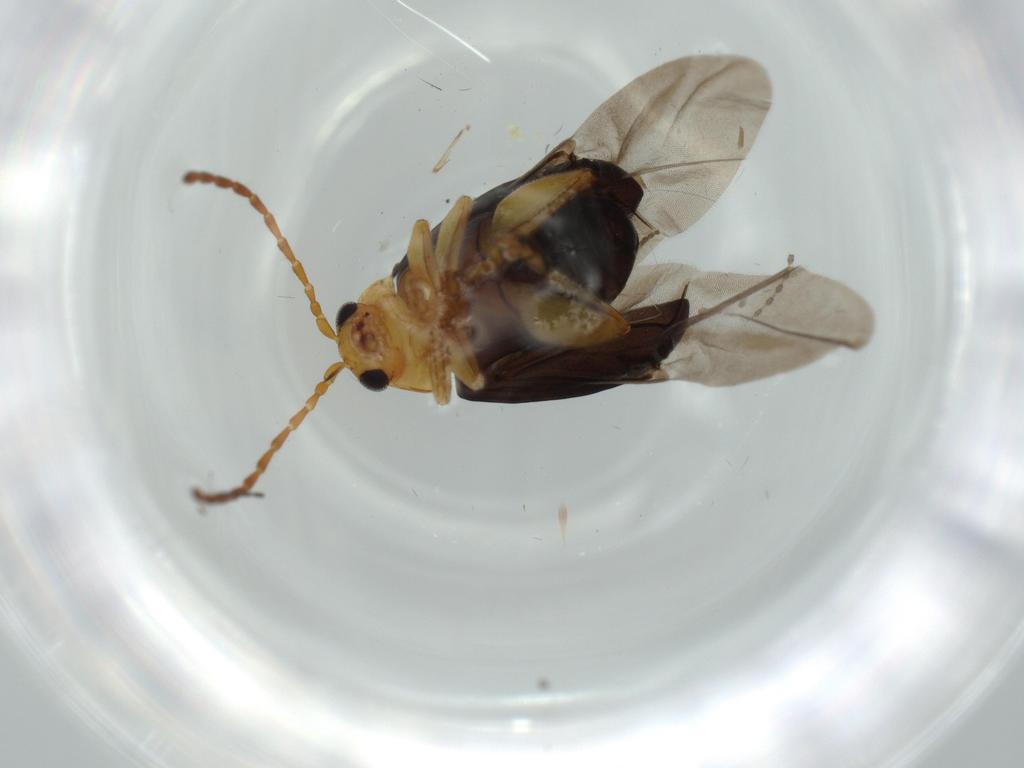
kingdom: Animalia
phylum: Arthropoda
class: Insecta
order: Coleoptera
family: Chrysomelidae
